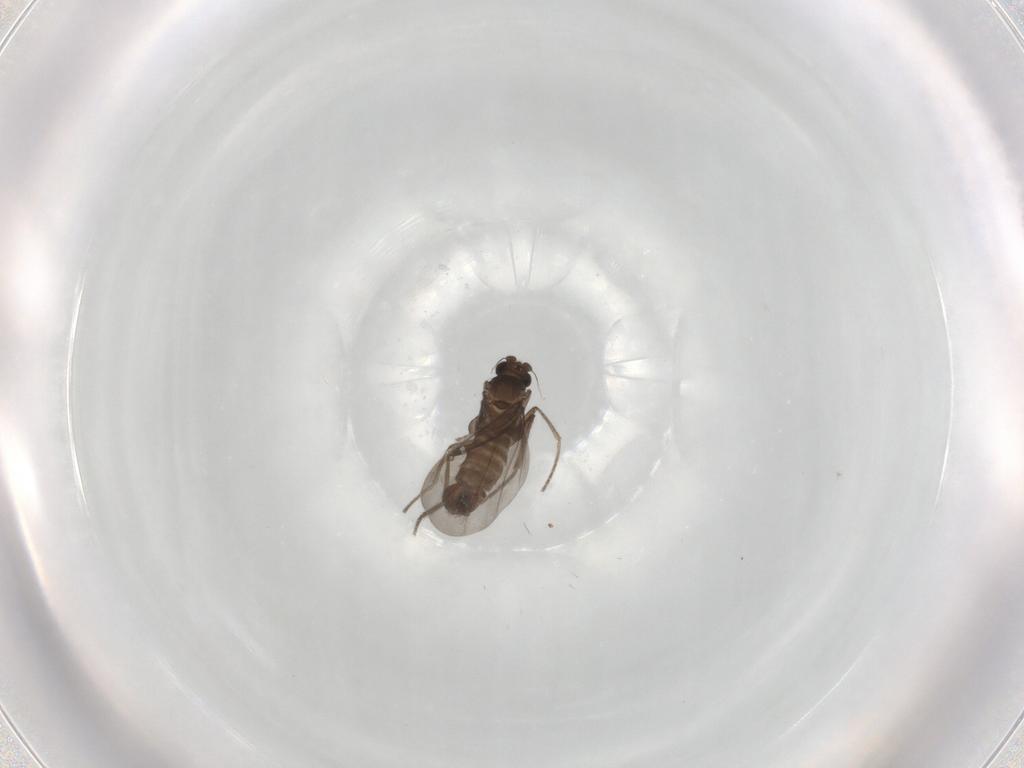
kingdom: Animalia
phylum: Arthropoda
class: Insecta
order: Diptera
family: Phoridae
